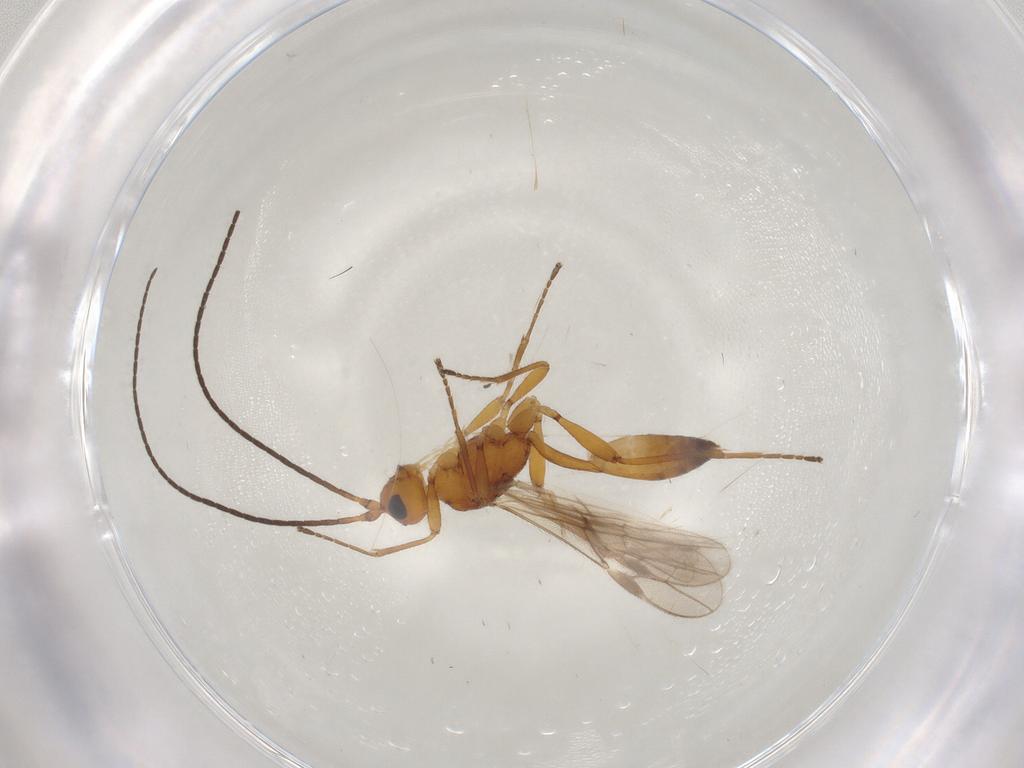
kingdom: Animalia
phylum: Arthropoda
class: Insecta
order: Hymenoptera
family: Braconidae
